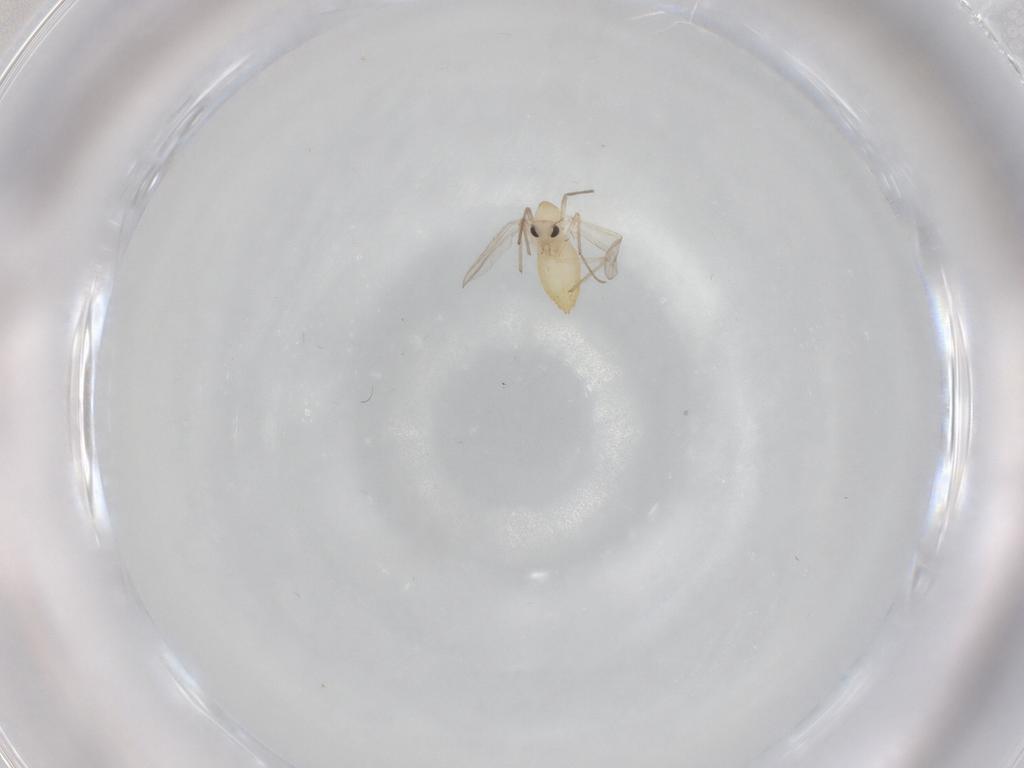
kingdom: Animalia
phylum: Arthropoda
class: Insecta
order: Diptera
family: Chironomidae
